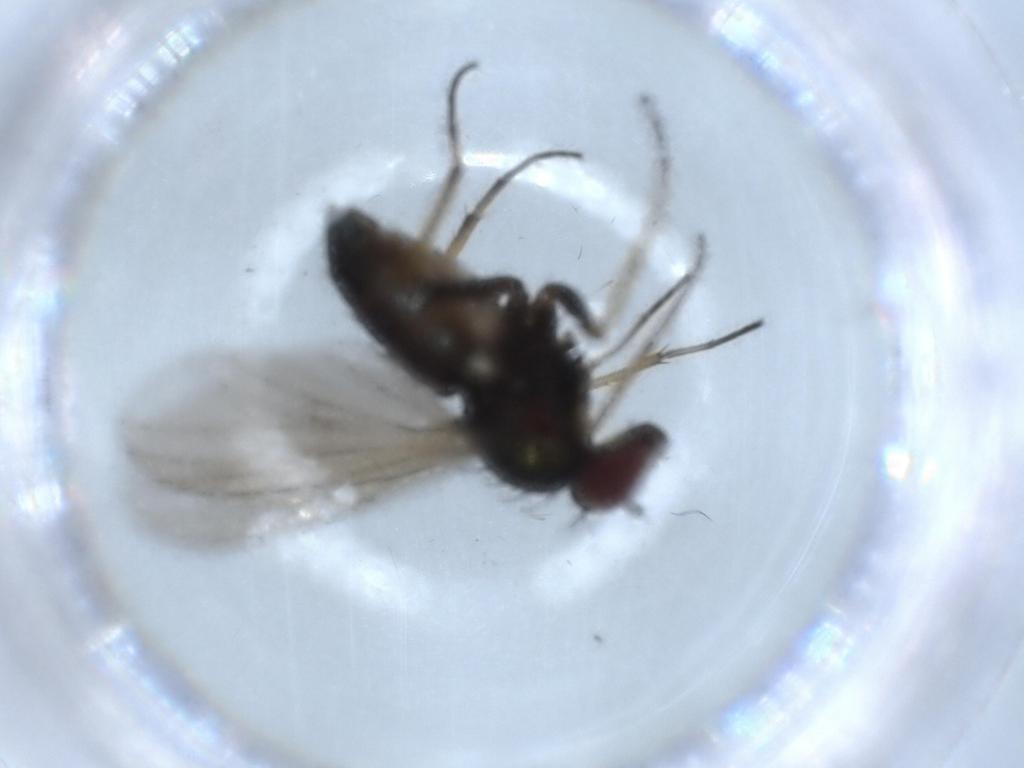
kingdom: Animalia
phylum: Arthropoda
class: Insecta
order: Diptera
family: Dolichopodidae
